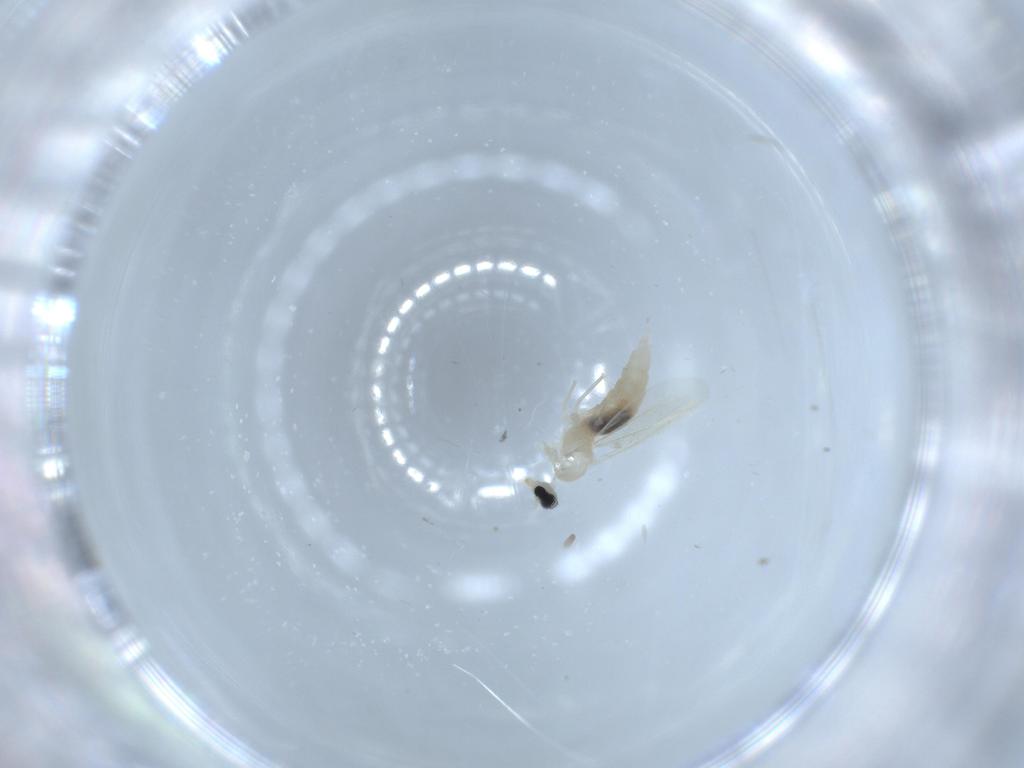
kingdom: Animalia
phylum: Arthropoda
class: Insecta
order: Diptera
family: Cecidomyiidae
